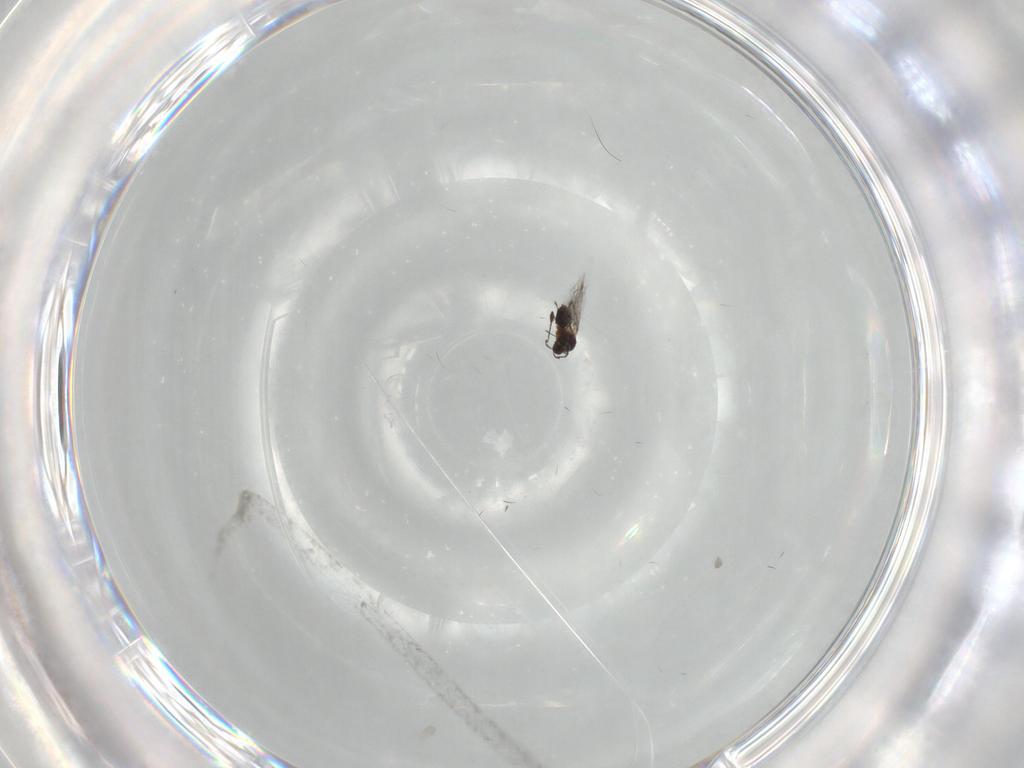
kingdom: Animalia
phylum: Arthropoda
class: Insecta
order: Hymenoptera
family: Mymaridae
